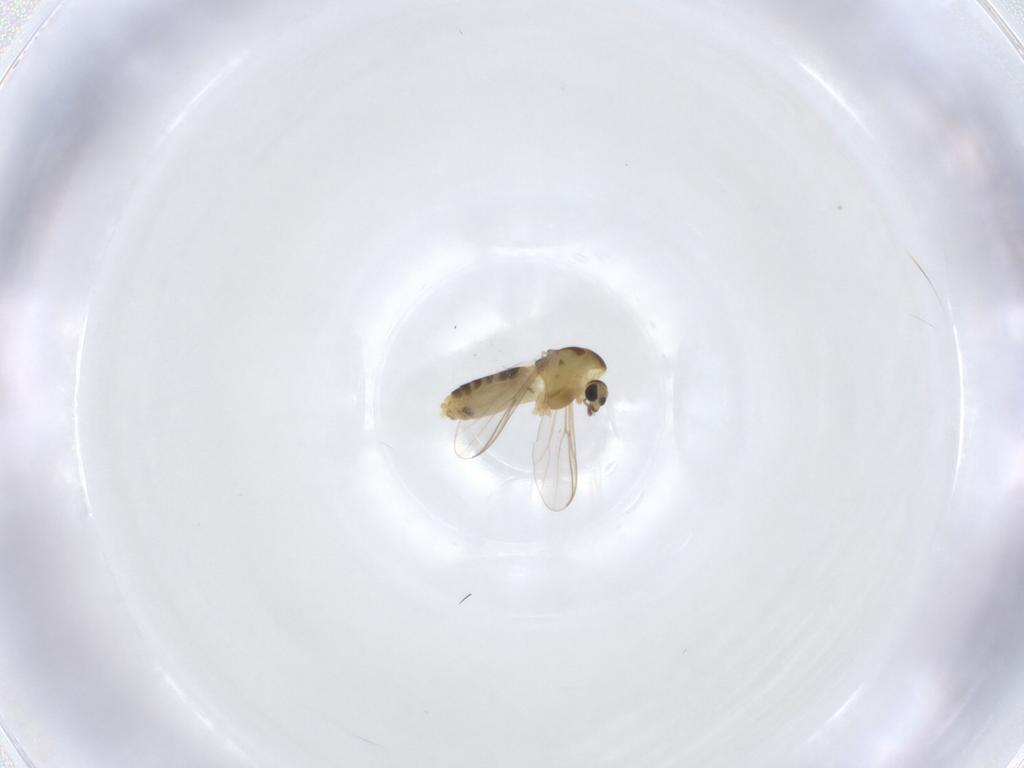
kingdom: Animalia
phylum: Arthropoda
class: Insecta
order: Diptera
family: Chironomidae
